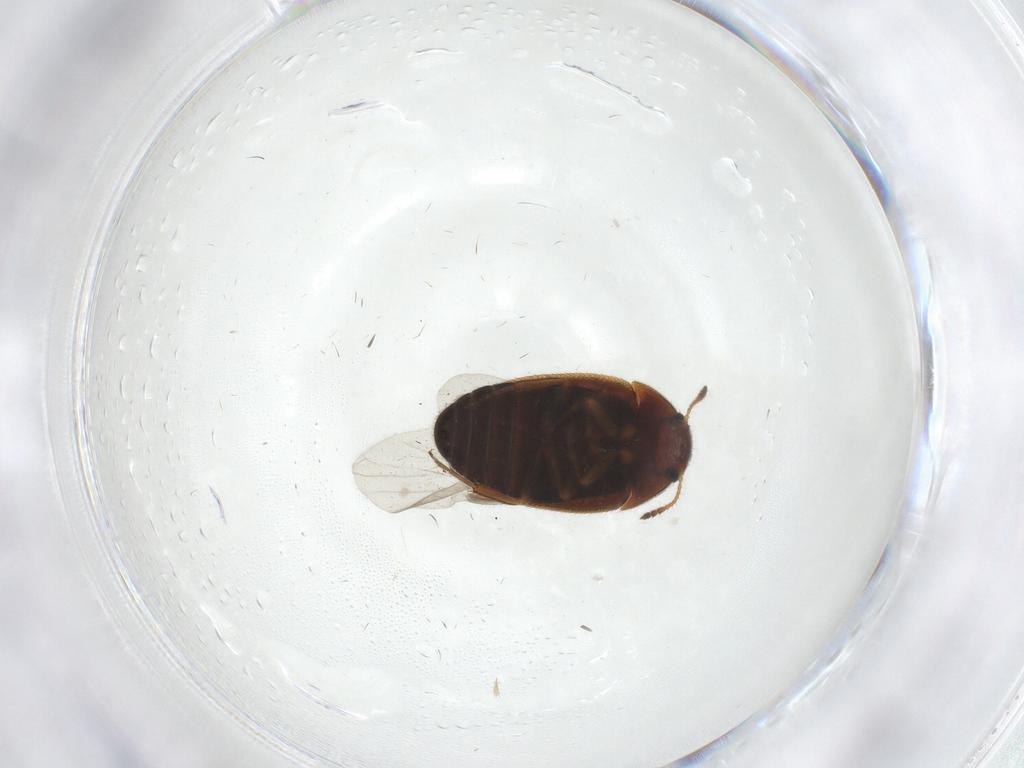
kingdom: Animalia
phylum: Arthropoda
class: Insecta
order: Coleoptera
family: Mycetophagidae
